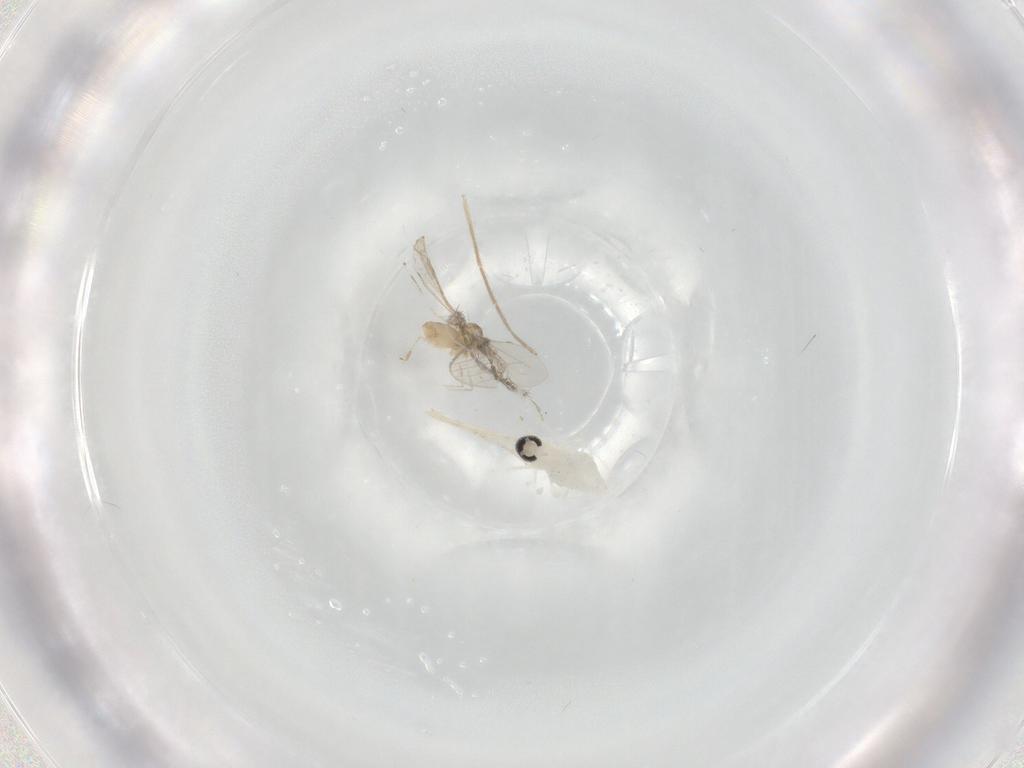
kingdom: Animalia
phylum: Arthropoda
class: Insecta
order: Diptera
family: Cecidomyiidae
